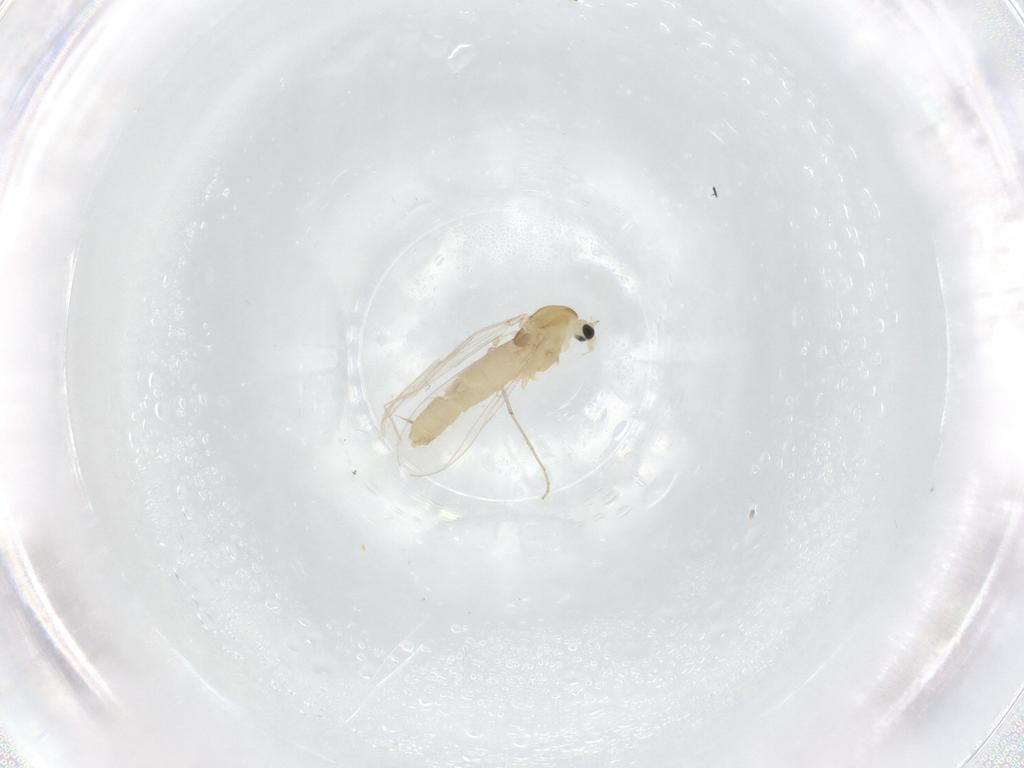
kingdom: Animalia
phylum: Arthropoda
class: Insecta
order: Diptera
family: Chironomidae
